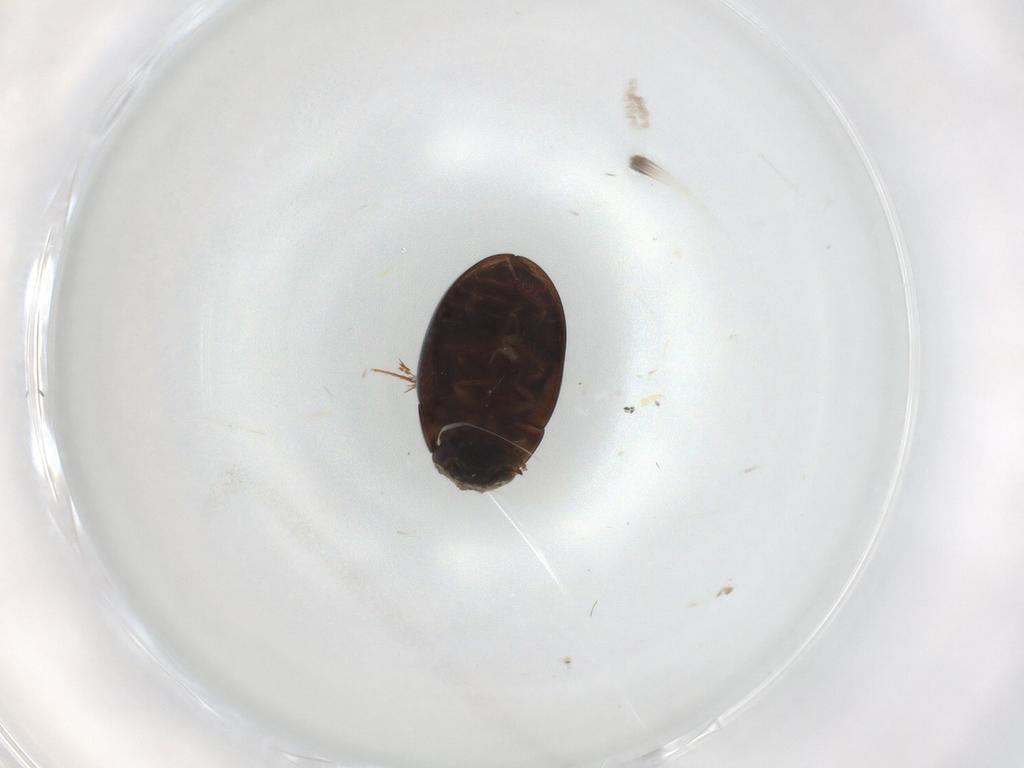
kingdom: Animalia
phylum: Arthropoda
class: Insecta
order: Coleoptera
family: Hydrophilidae
